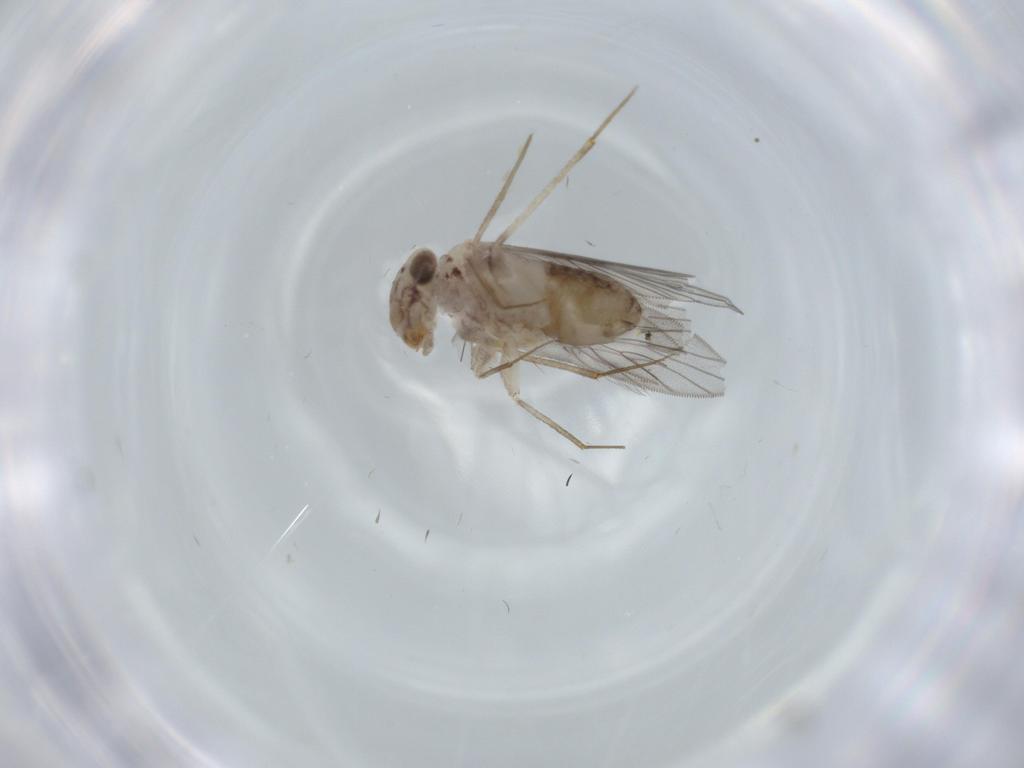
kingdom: Animalia
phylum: Arthropoda
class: Insecta
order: Psocodea
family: Lepidopsocidae
